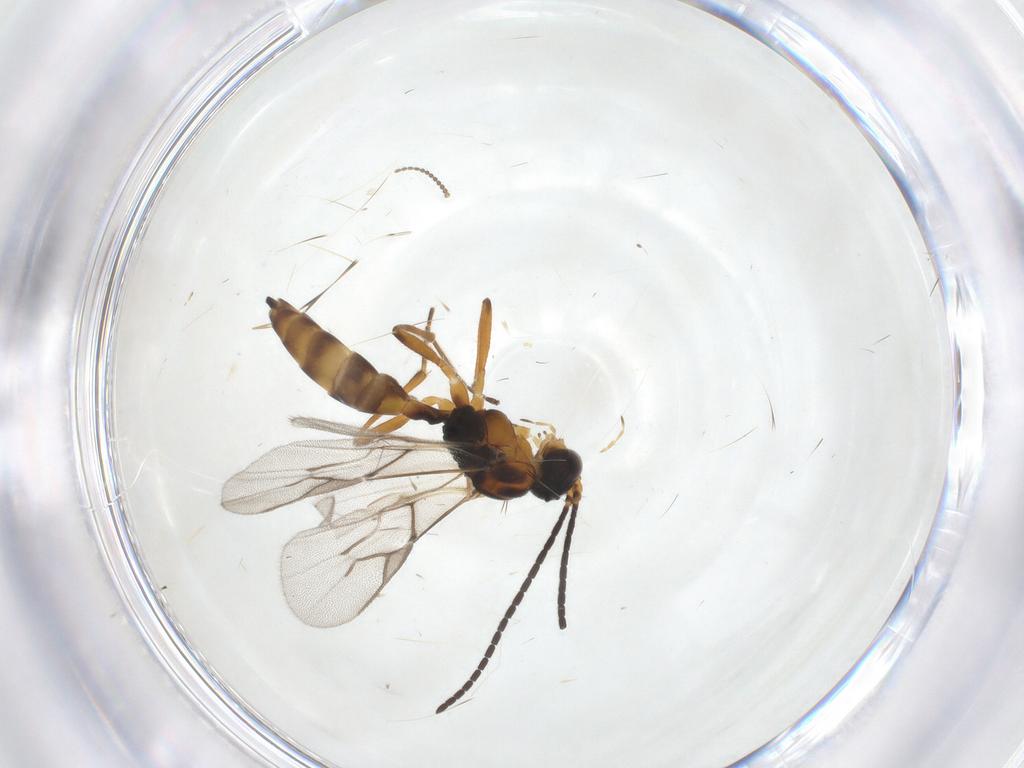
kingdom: Animalia
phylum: Arthropoda
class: Insecta
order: Hymenoptera
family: Braconidae
